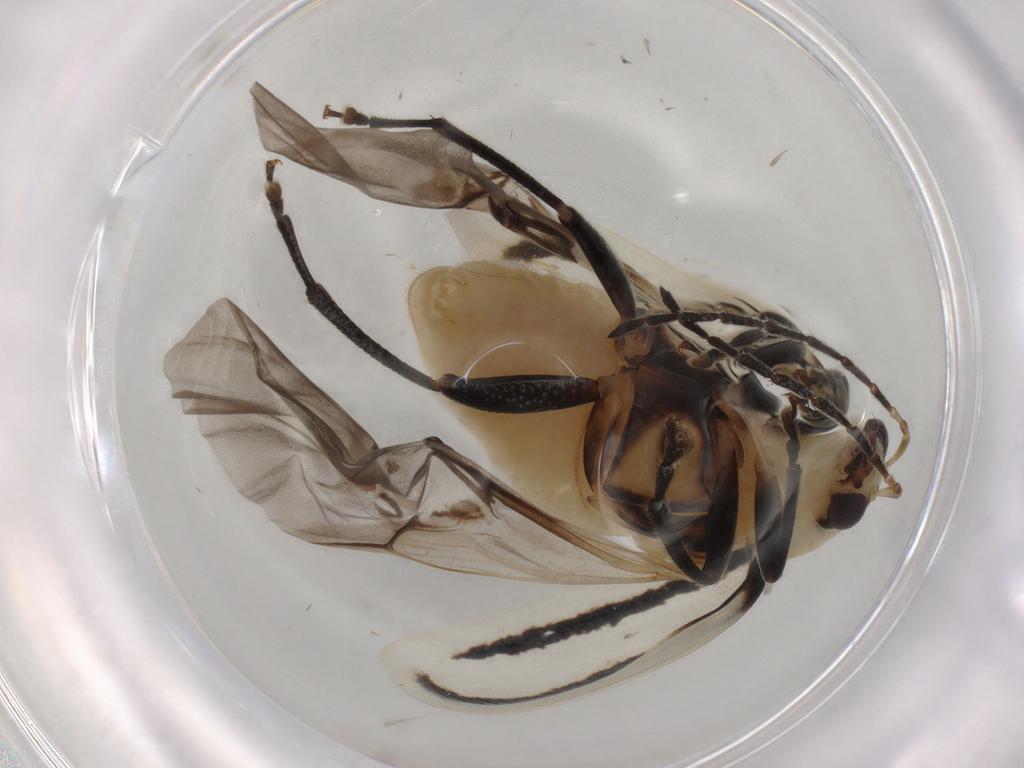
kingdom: Animalia
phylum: Arthropoda
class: Insecta
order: Coleoptera
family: Chrysomelidae
